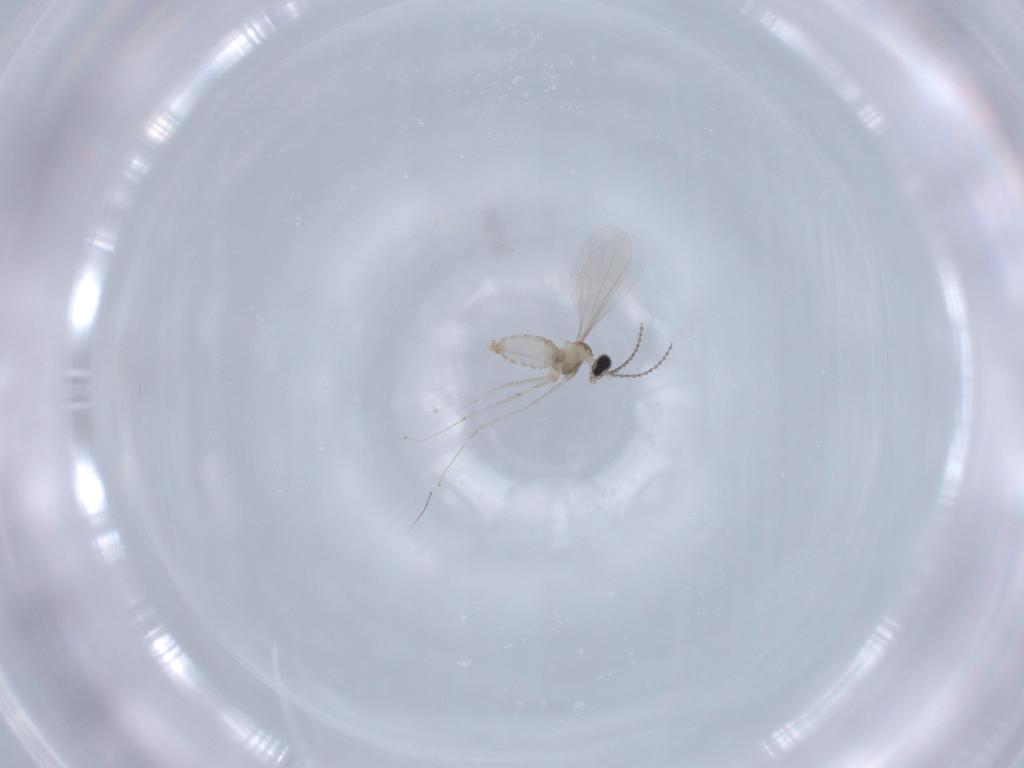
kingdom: Animalia
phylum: Arthropoda
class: Insecta
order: Diptera
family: Cecidomyiidae
